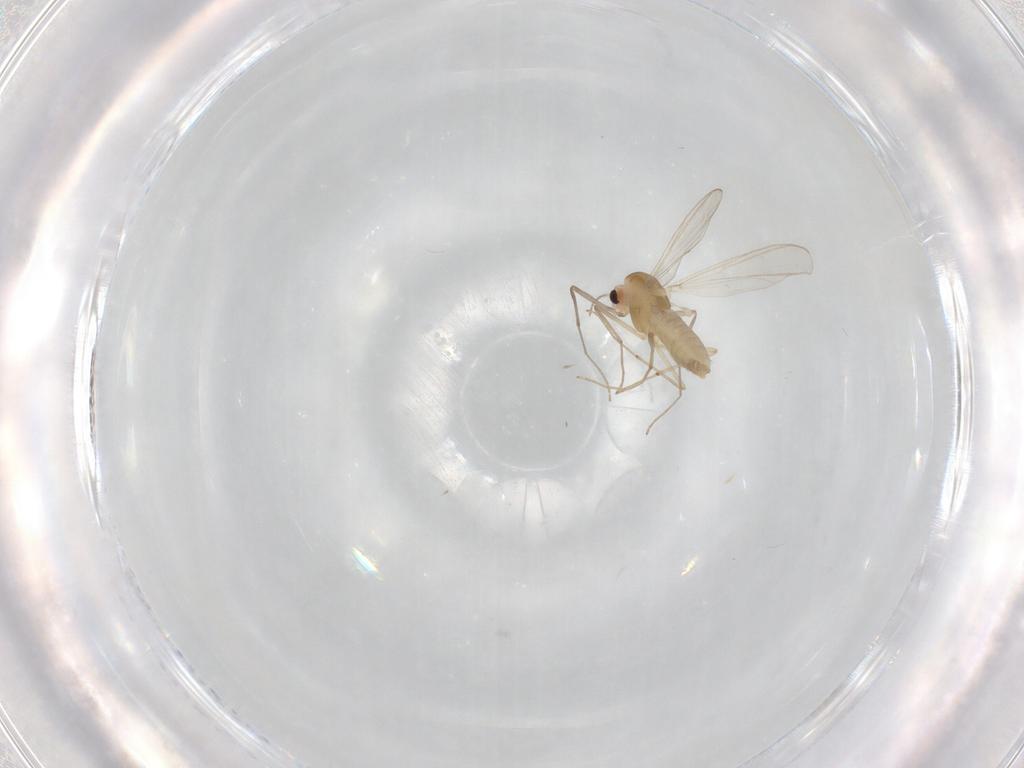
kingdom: Animalia
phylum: Arthropoda
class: Insecta
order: Diptera
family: Chironomidae
